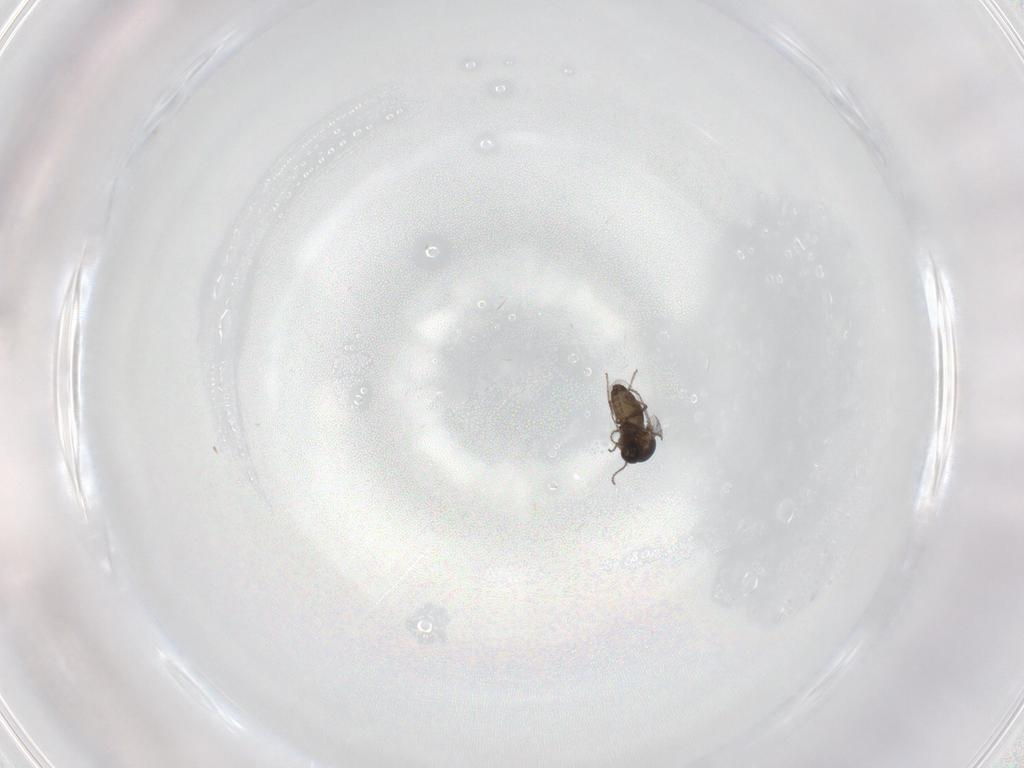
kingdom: Animalia
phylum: Arthropoda
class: Insecta
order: Diptera
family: Ceratopogonidae
